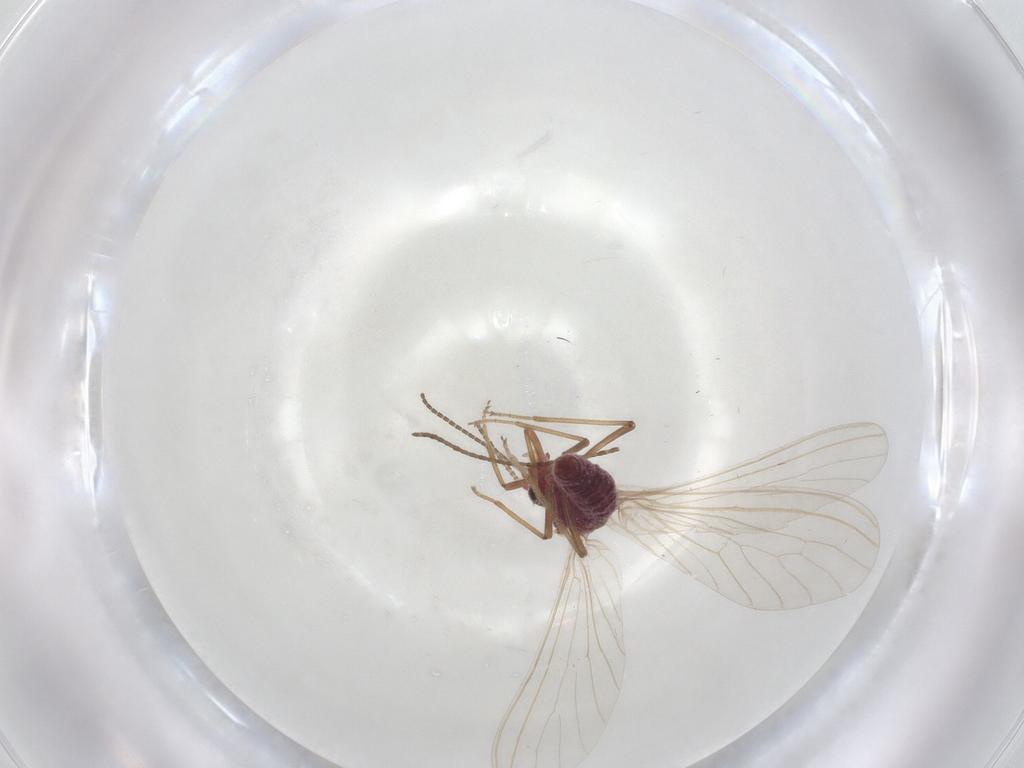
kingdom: Animalia
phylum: Arthropoda
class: Insecta
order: Neuroptera
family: Coniopterygidae
